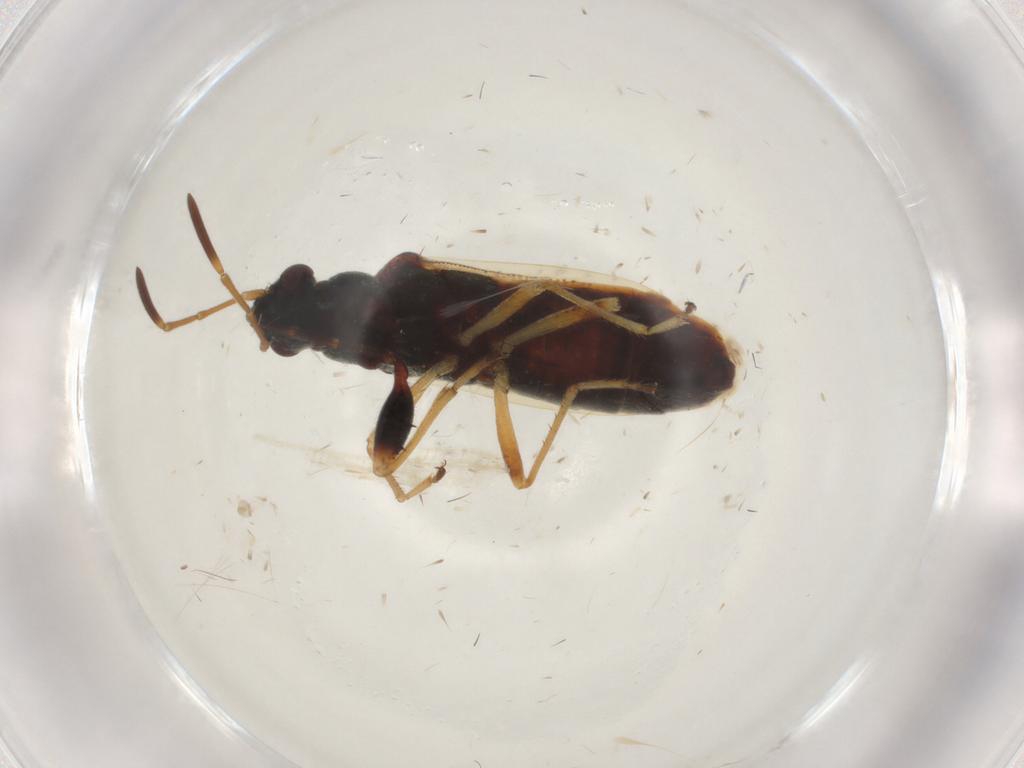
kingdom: Animalia
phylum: Arthropoda
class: Insecta
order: Hemiptera
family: Rhyparochromidae
